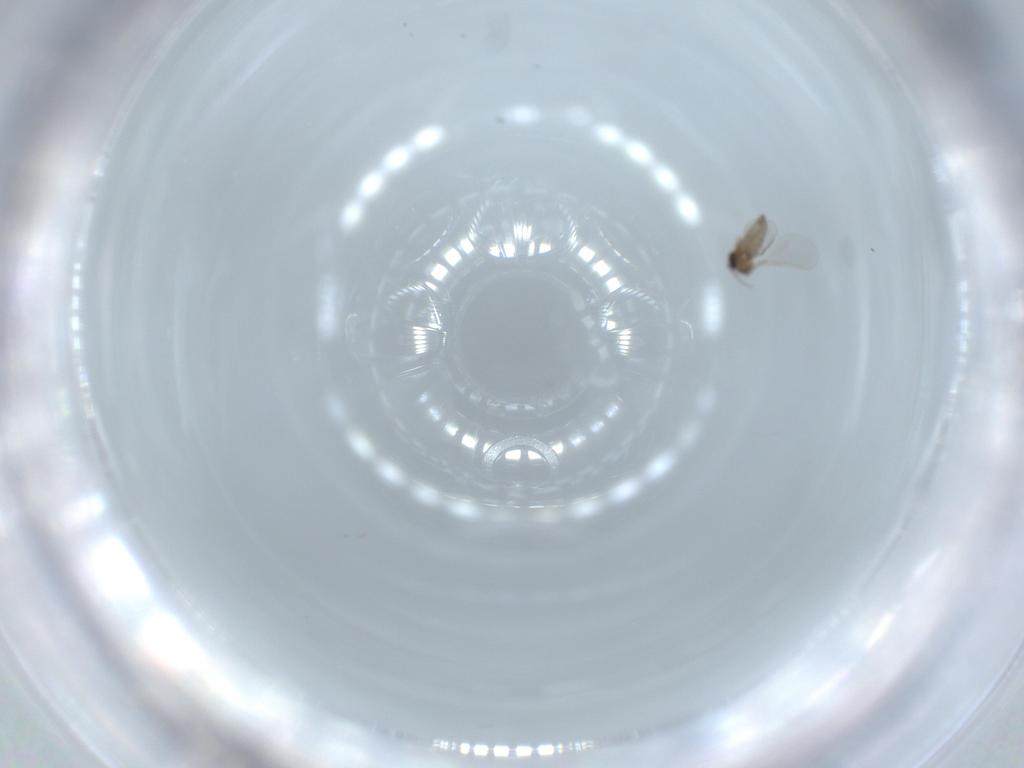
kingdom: Animalia
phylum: Arthropoda
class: Insecta
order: Diptera
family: Cecidomyiidae
